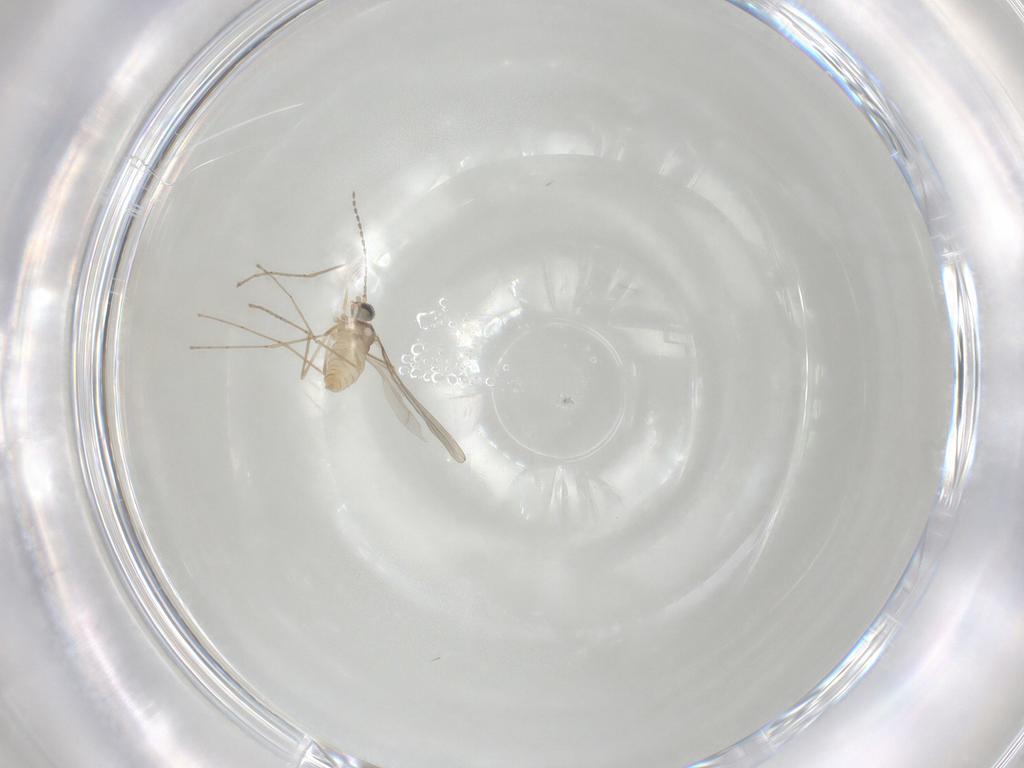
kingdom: Animalia
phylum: Arthropoda
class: Insecta
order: Diptera
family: Cecidomyiidae
